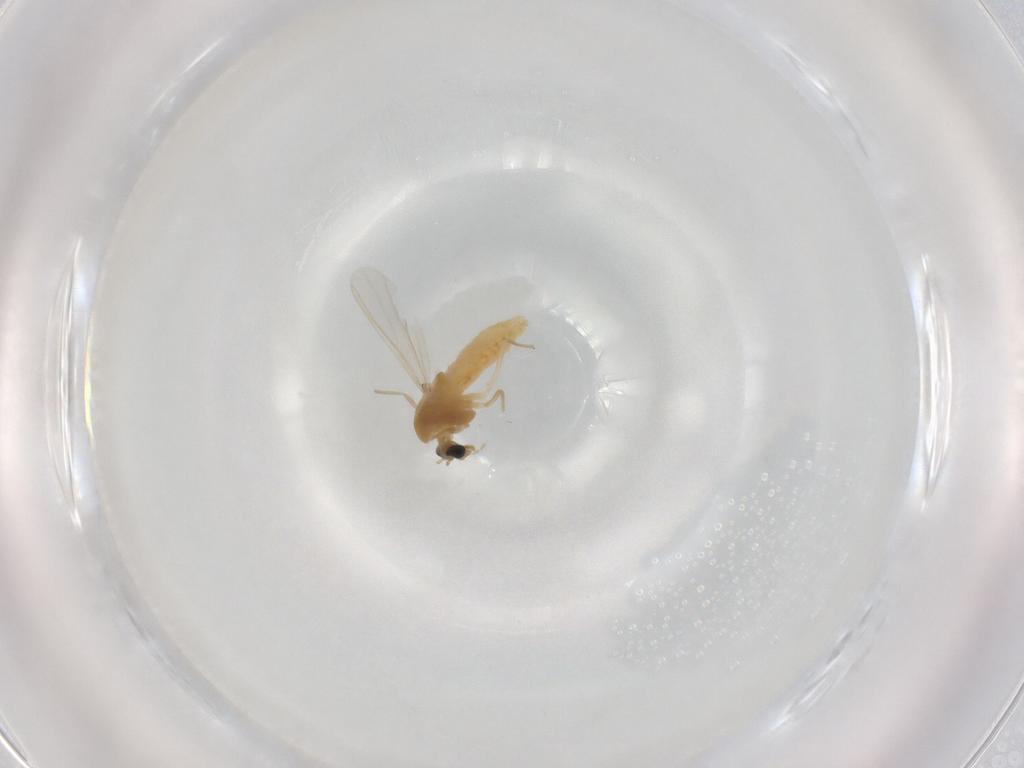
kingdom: Animalia
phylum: Arthropoda
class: Insecta
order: Diptera
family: Chironomidae
